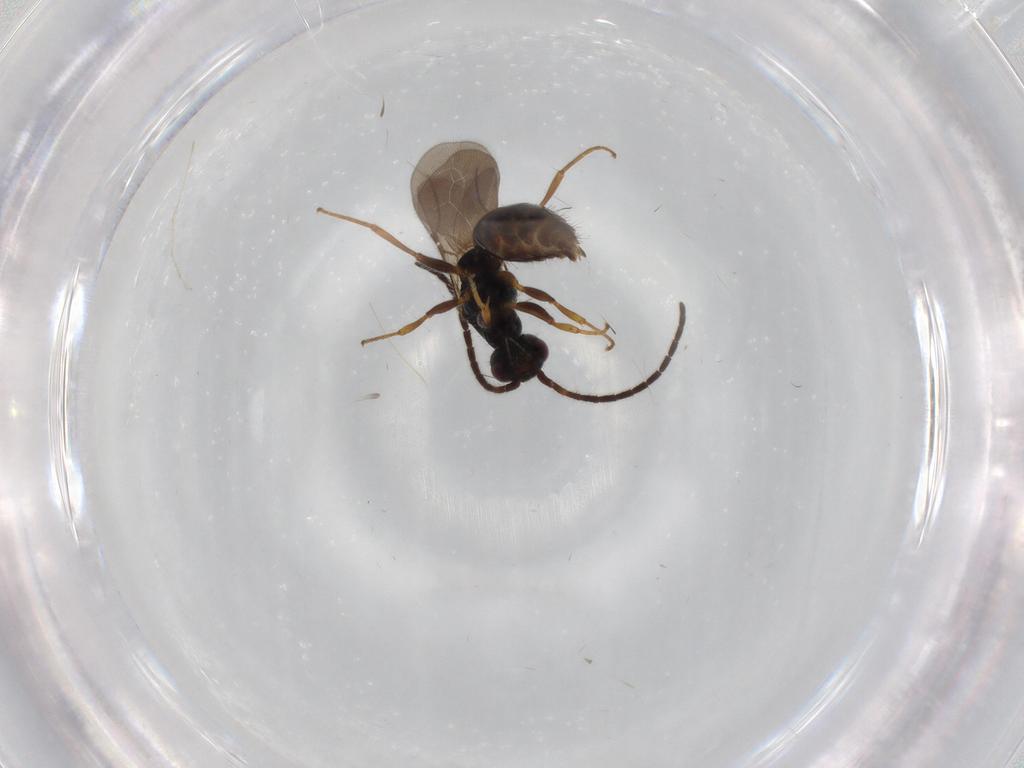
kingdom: Animalia
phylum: Arthropoda
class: Insecta
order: Hymenoptera
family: Bethylidae
